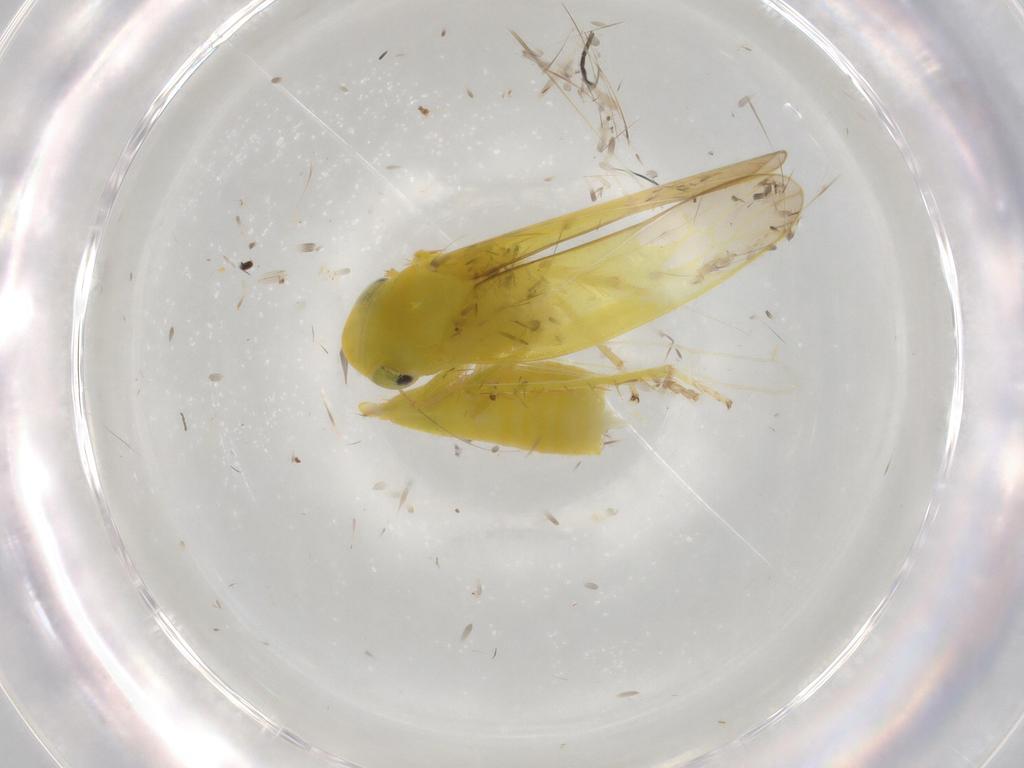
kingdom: Animalia
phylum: Arthropoda
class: Insecta
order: Hemiptera
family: Cicadellidae
